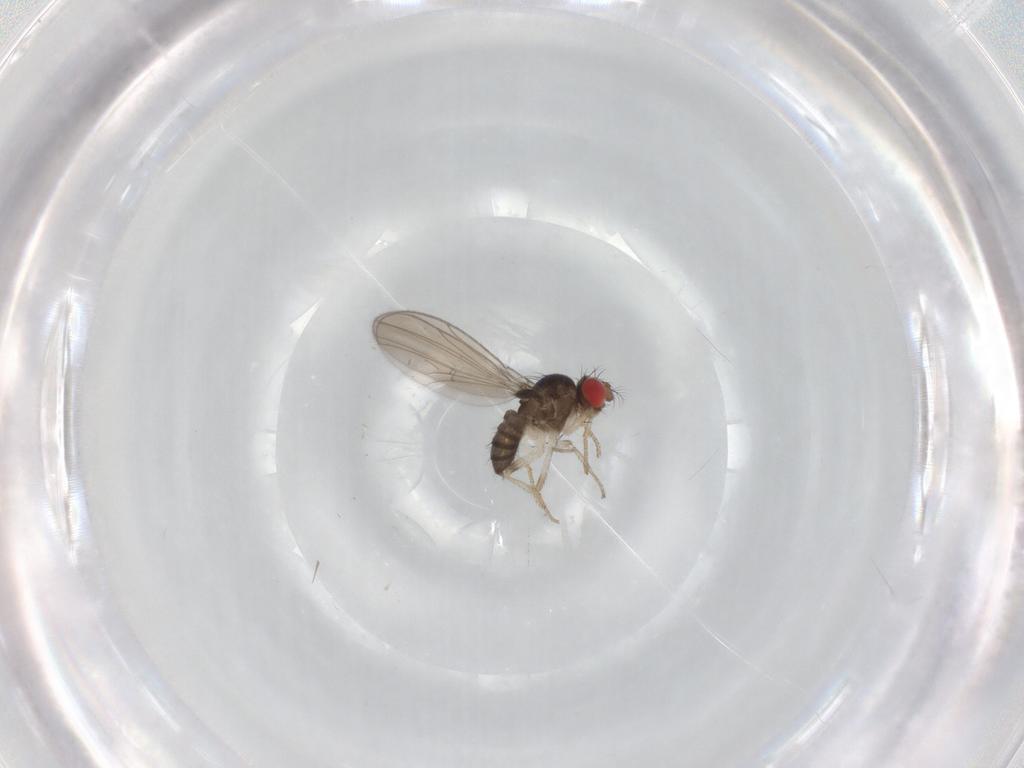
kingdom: Animalia
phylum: Arthropoda
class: Insecta
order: Diptera
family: Drosophilidae
